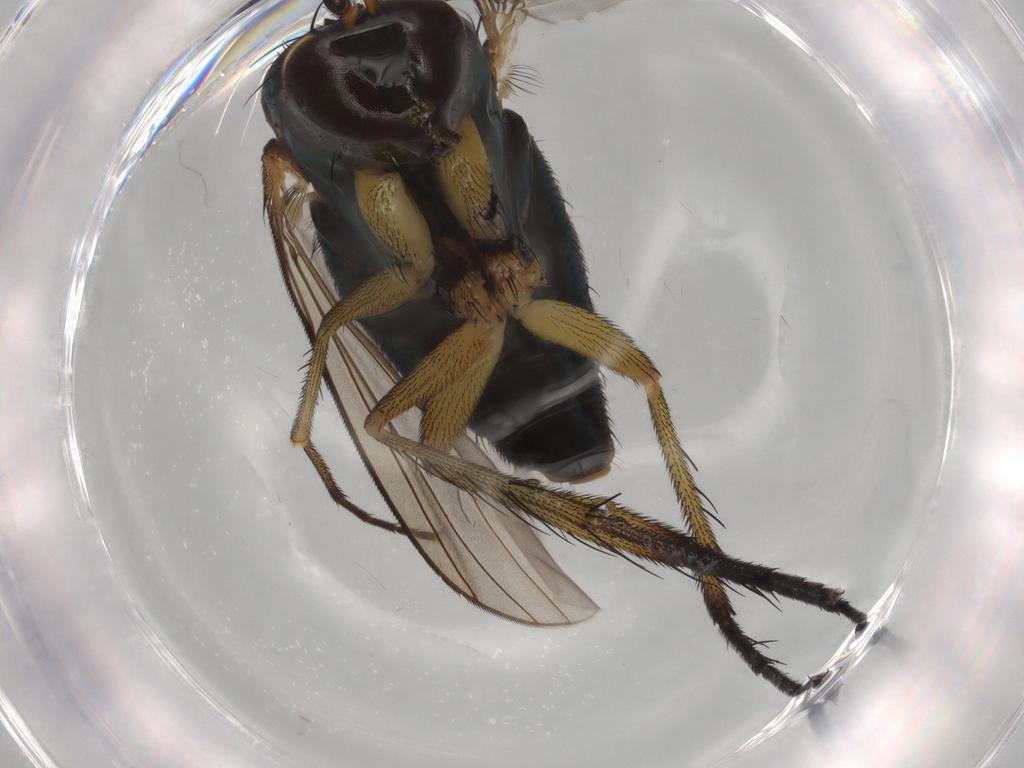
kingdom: Animalia
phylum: Arthropoda
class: Insecta
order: Diptera
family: Dolichopodidae
